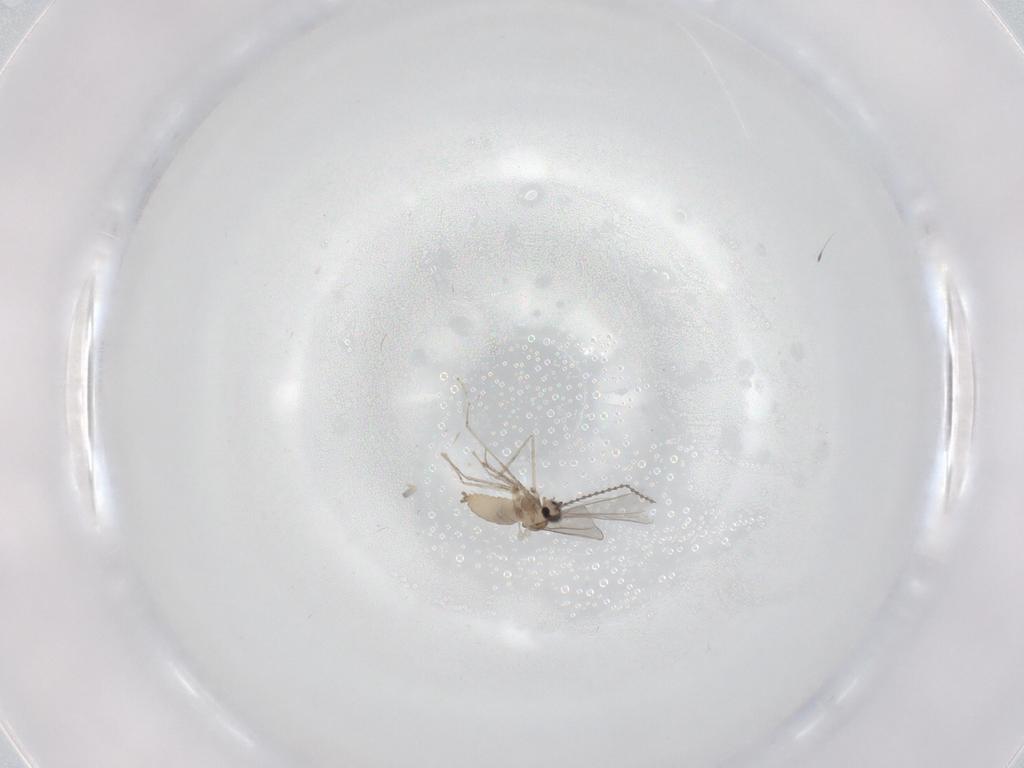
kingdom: Animalia
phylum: Arthropoda
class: Insecta
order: Diptera
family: Cecidomyiidae
